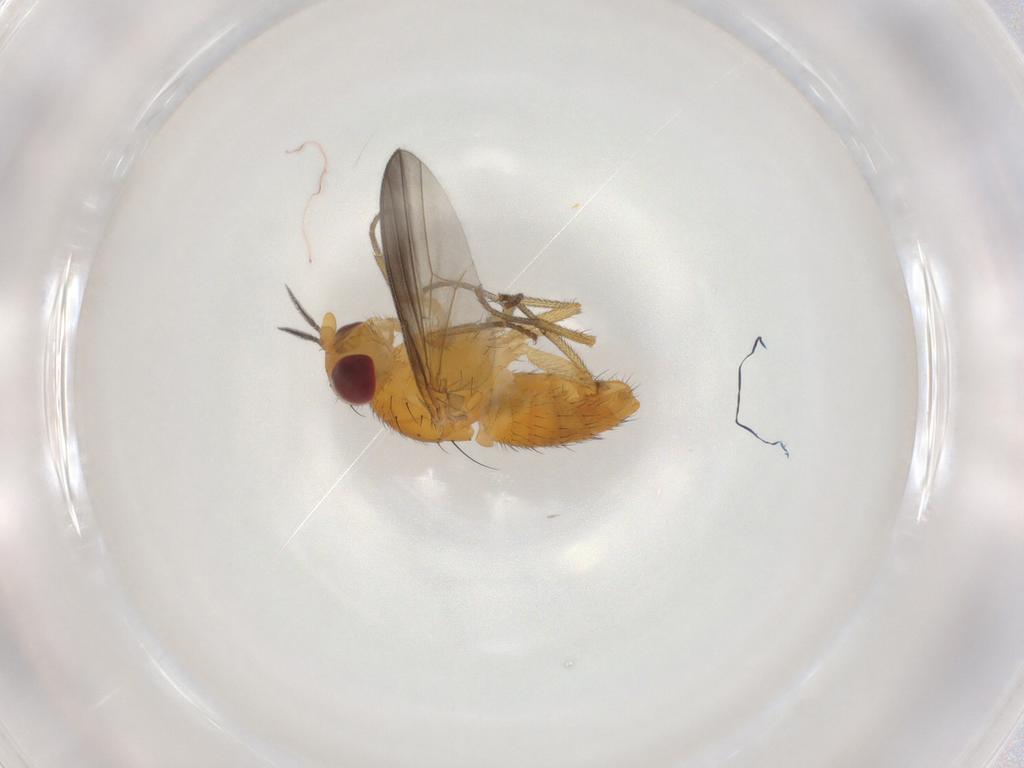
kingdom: Animalia
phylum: Arthropoda
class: Insecta
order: Diptera
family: Lauxaniidae
